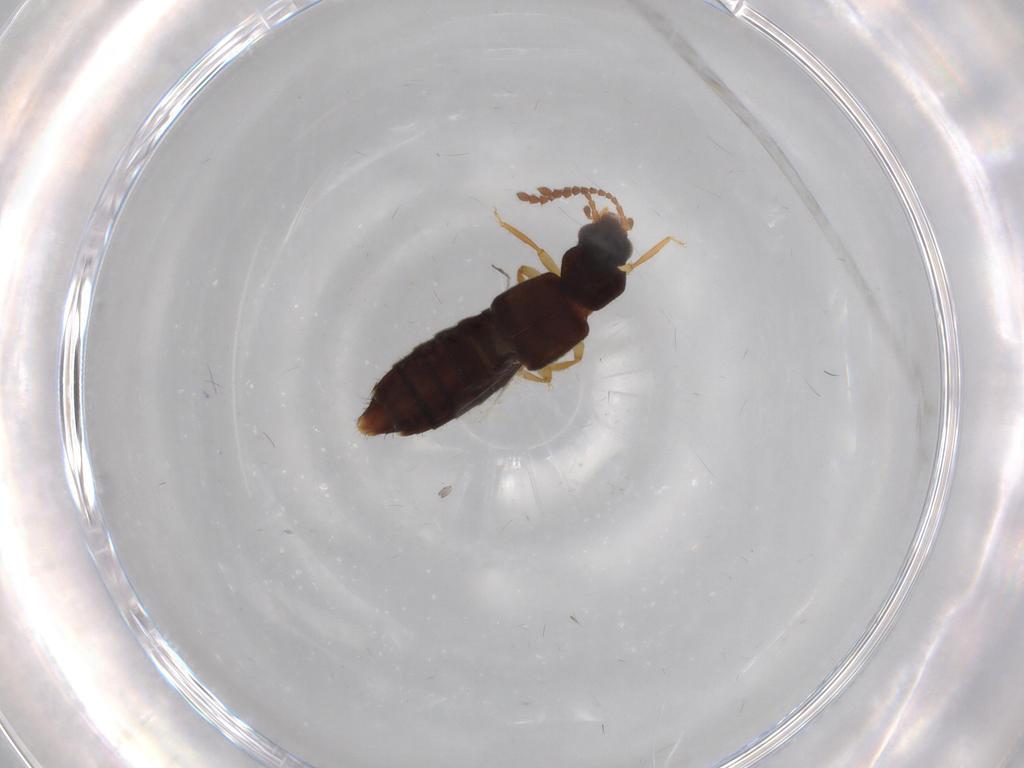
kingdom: Animalia
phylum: Arthropoda
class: Insecta
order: Coleoptera
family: Staphylinidae
